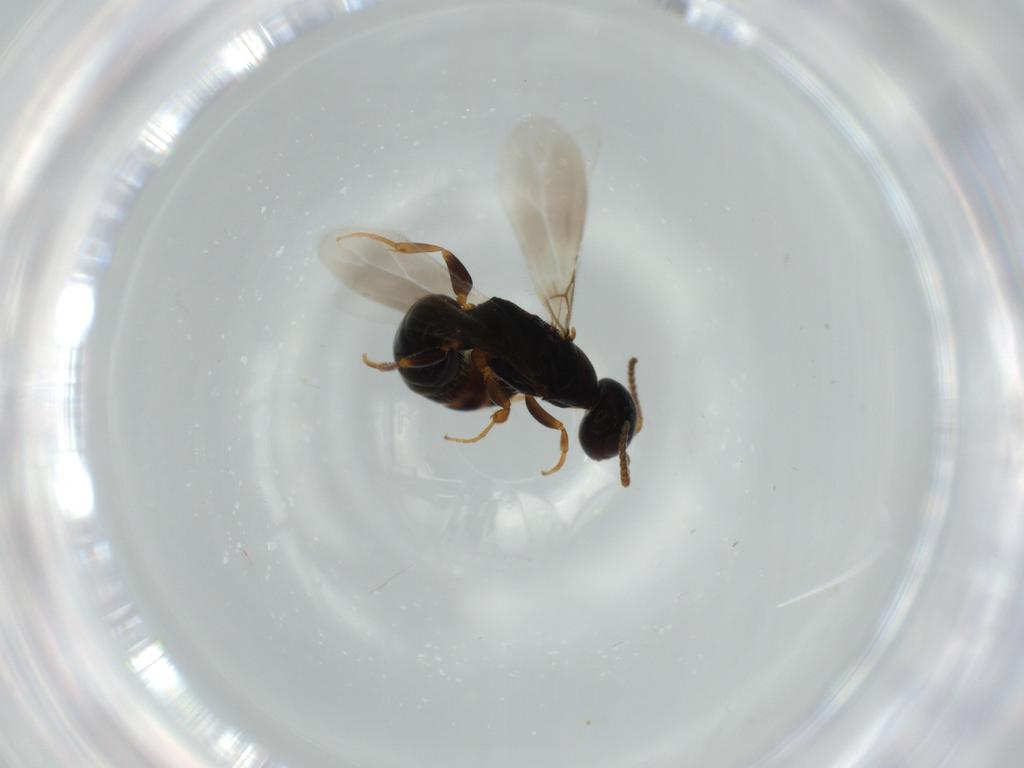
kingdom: Animalia
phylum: Arthropoda
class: Insecta
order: Hymenoptera
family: Bethylidae
